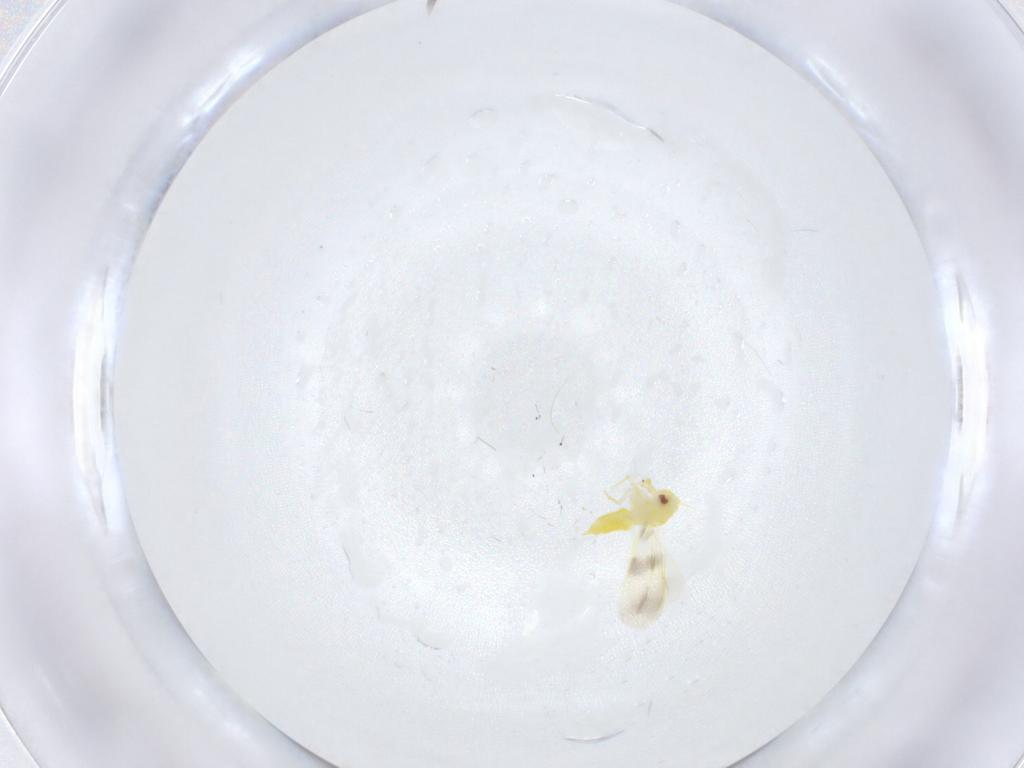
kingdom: Animalia
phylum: Arthropoda
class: Insecta
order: Hemiptera
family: Aleyrodidae
